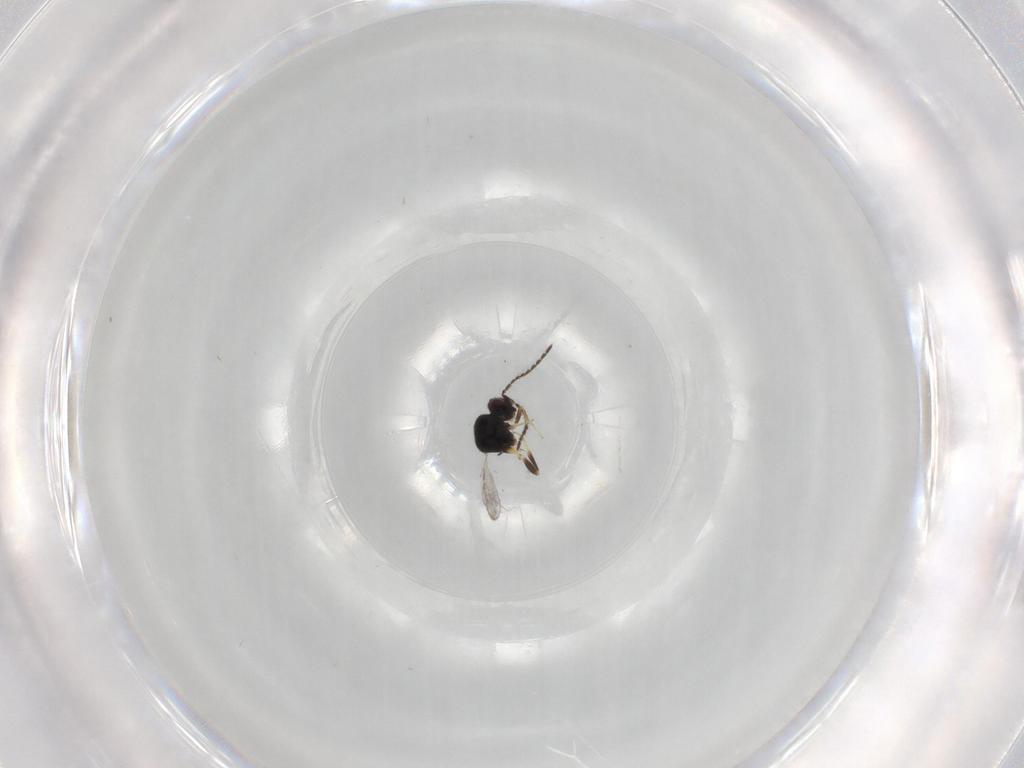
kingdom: Animalia
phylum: Arthropoda
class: Insecta
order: Hymenoptera
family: Ceraphronidae
